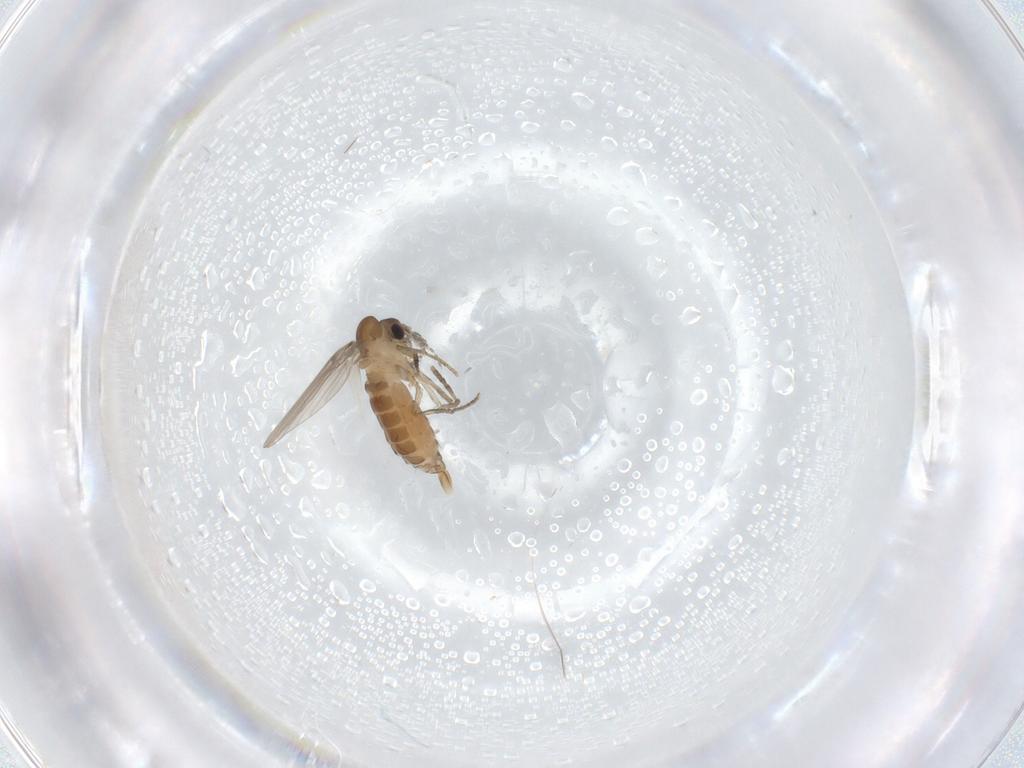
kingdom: Animalia
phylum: Arthropoda
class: Insecta
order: Diptera
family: Psychodidae
